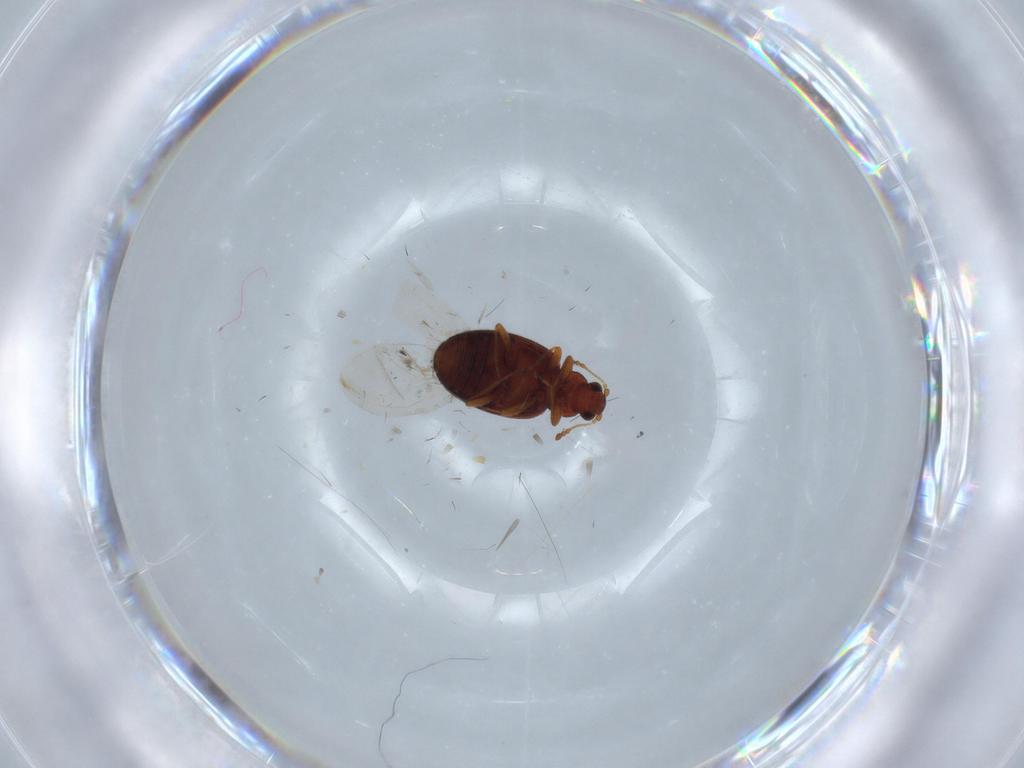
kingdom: Animalia
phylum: Arthropoda
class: Insecta
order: Coleoptera
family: Latridiidae
